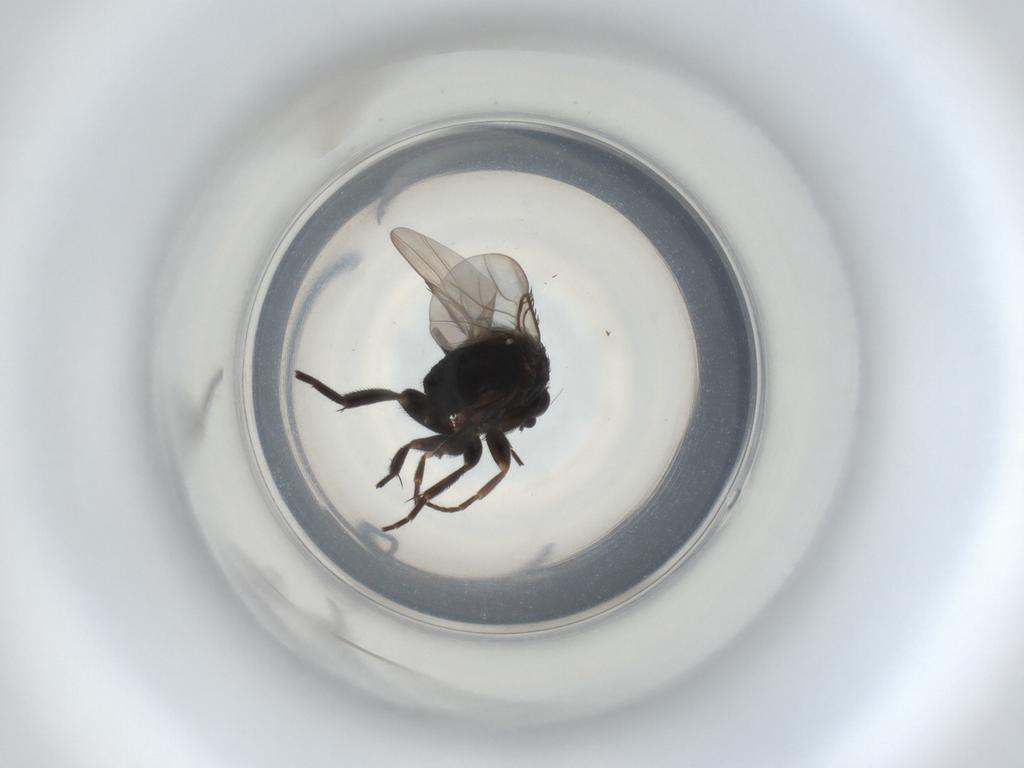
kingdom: Animalia
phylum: Arthropoda
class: Insecta
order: Diptera
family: Phoridae
